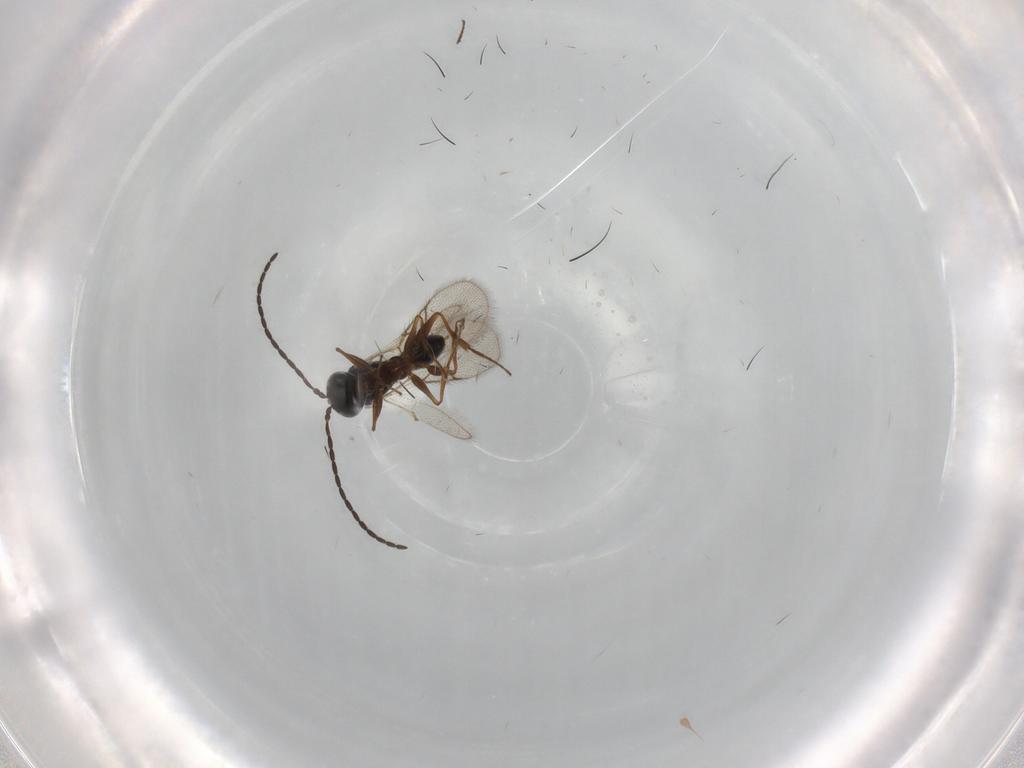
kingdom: Animalia
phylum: Arthropoda
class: Insecta
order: Hymenoptera
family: Figitidae
